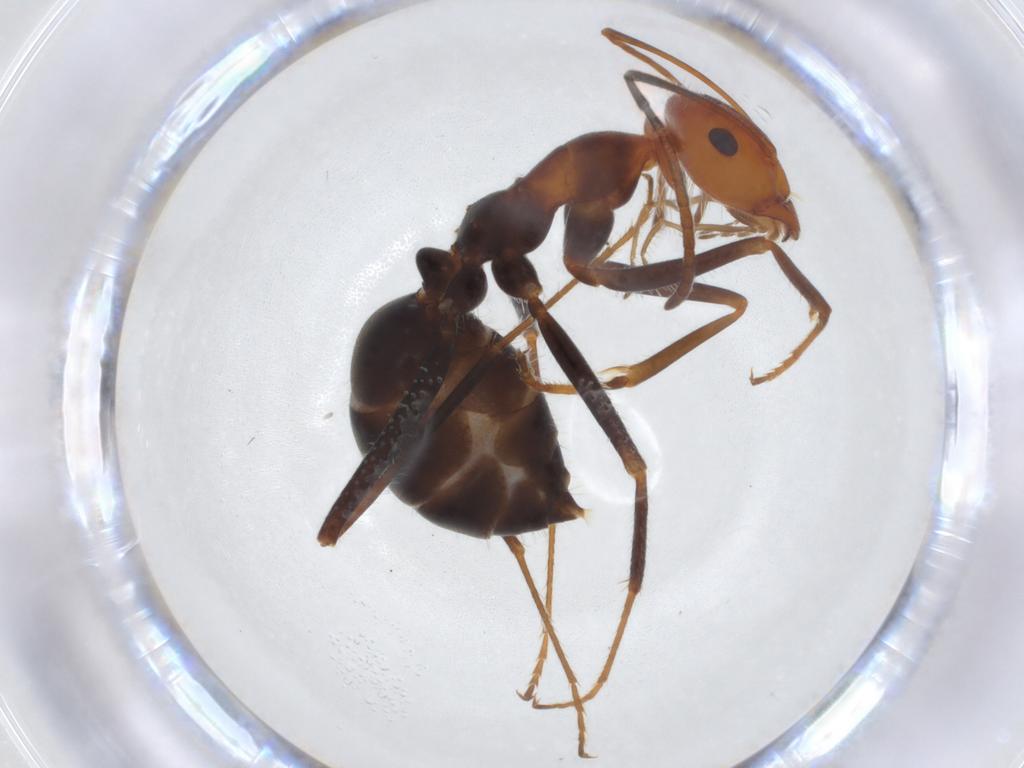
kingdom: Animalia
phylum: Arthropoda
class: Insecta
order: Hymenoptera
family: Formicidae
